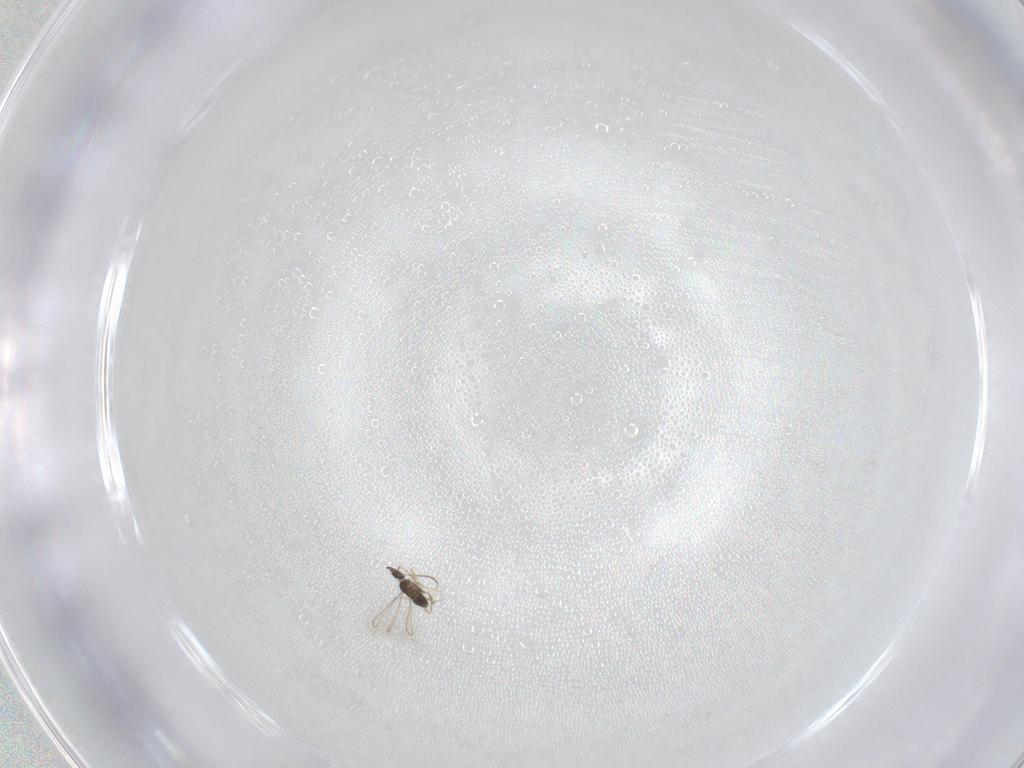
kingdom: Animalia
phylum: Arthropoda
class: Insecta
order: Hymenoptera
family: Mymaridae
